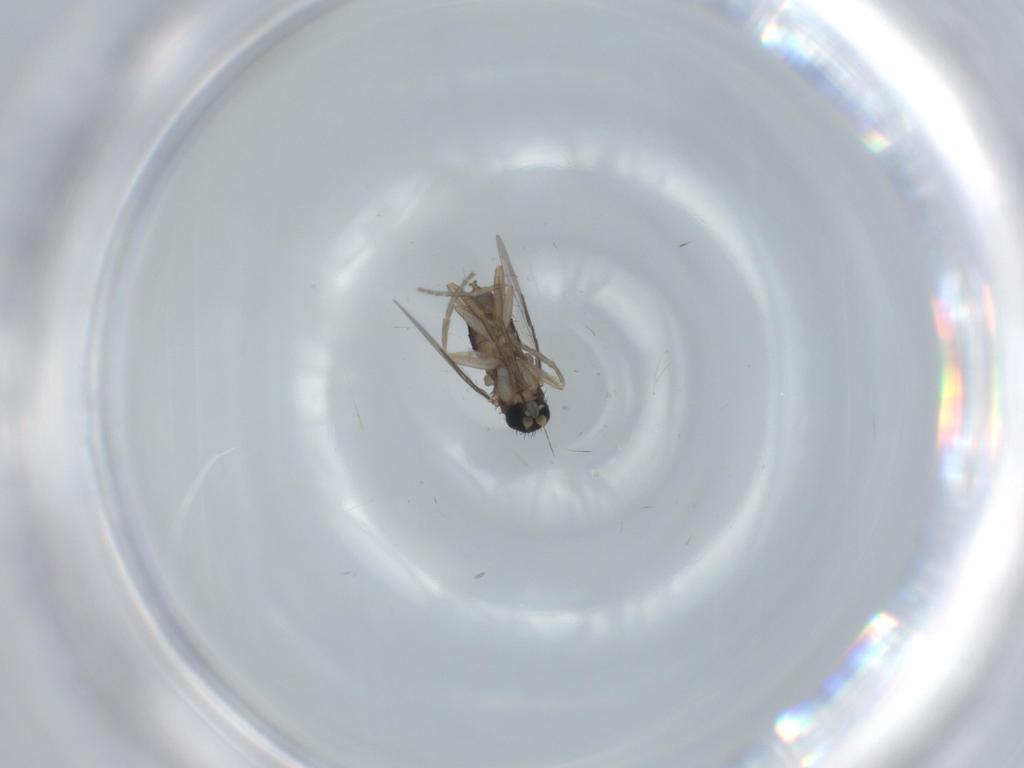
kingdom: Animalia
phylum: Arthropoda
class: Insecta
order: Diptera
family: Phoridae
